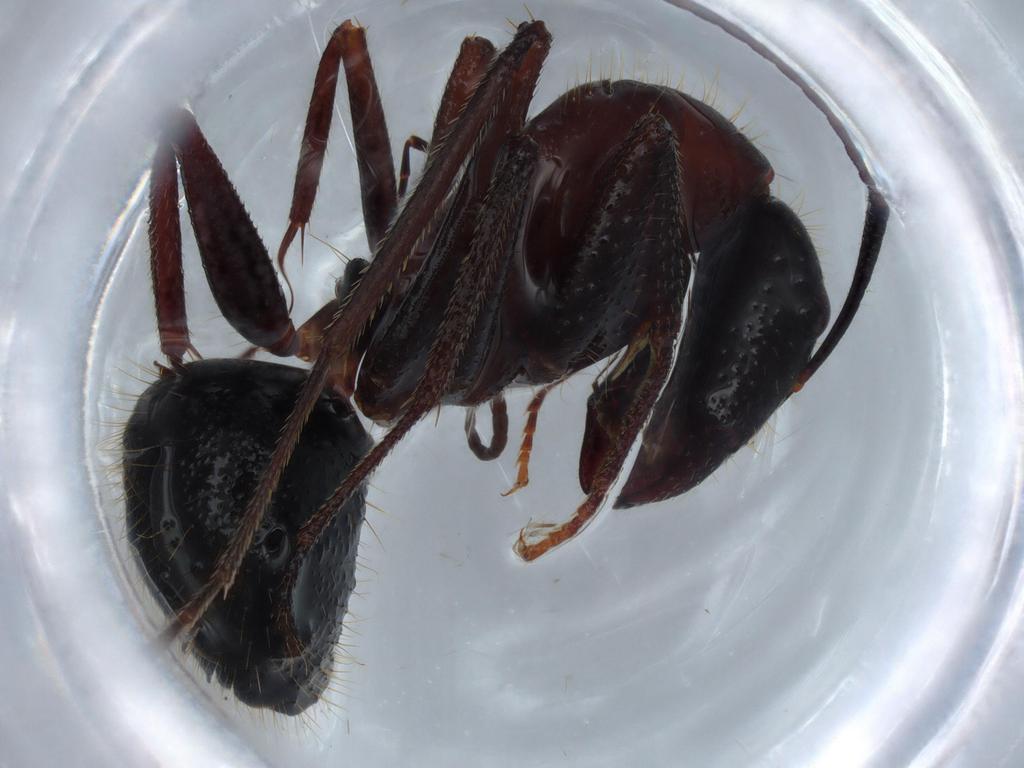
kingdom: Animalia
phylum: Arthropoda
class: Insecta
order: Hymenoptera
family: Formicidae
